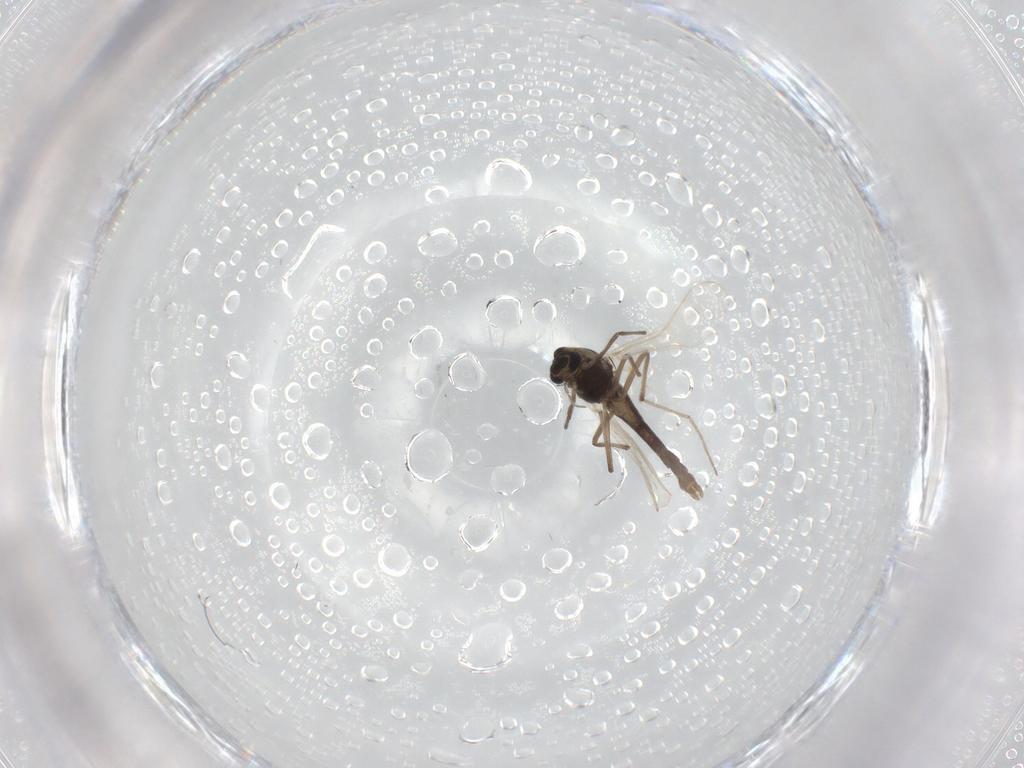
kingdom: Animalia
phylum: Arthropoda
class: Insecta
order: Diptera
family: Chironomidae
